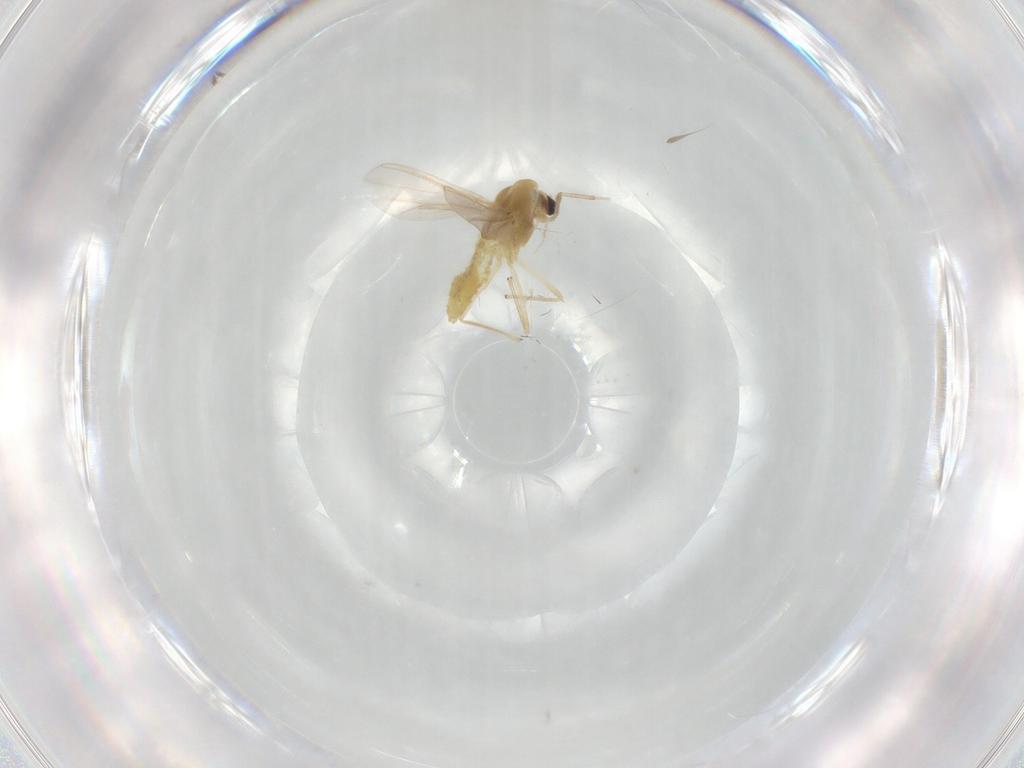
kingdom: Animalia
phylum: Arthropoda
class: Insecta
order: Diptera
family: Chironomidae
